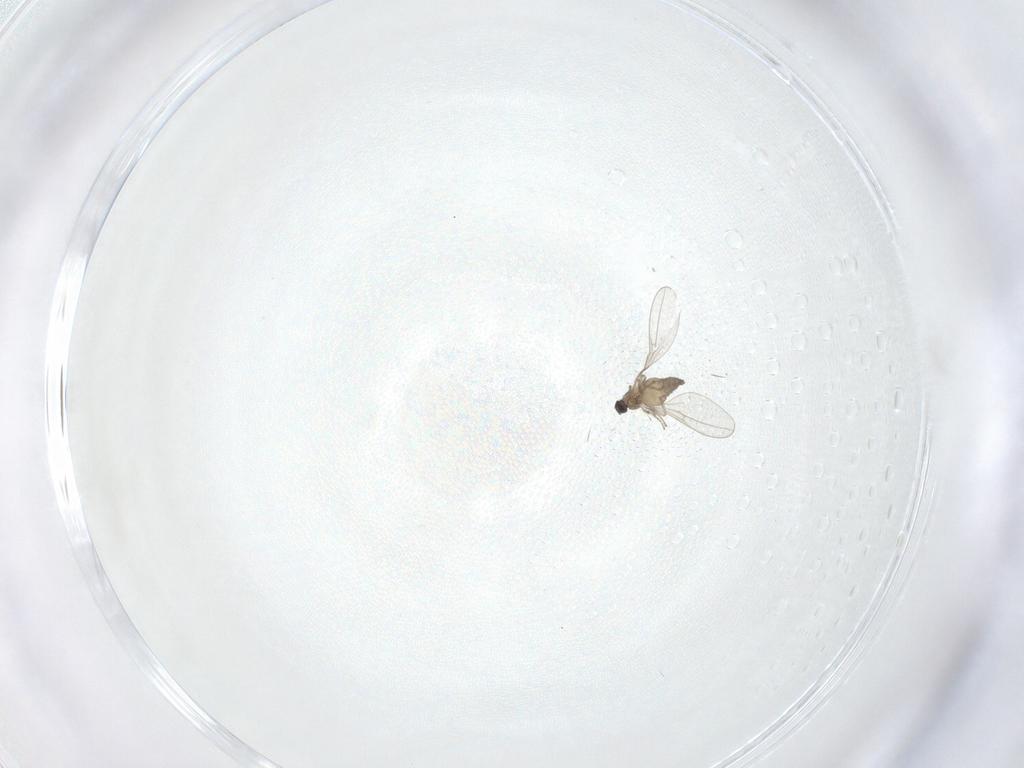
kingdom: Animalia
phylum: Arthropoda
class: Insecta
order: Diptera
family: Cecidomyiidae
